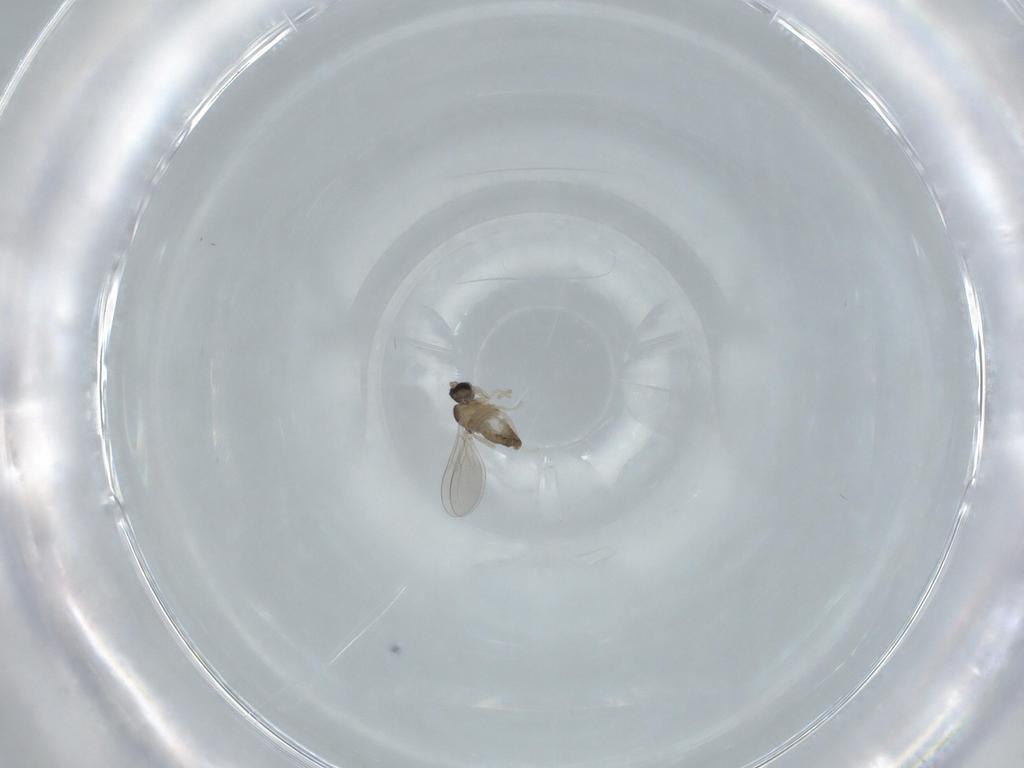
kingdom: Animalia
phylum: Arthropoda
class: Insecta
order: Diptera
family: Cecidomyiidae
